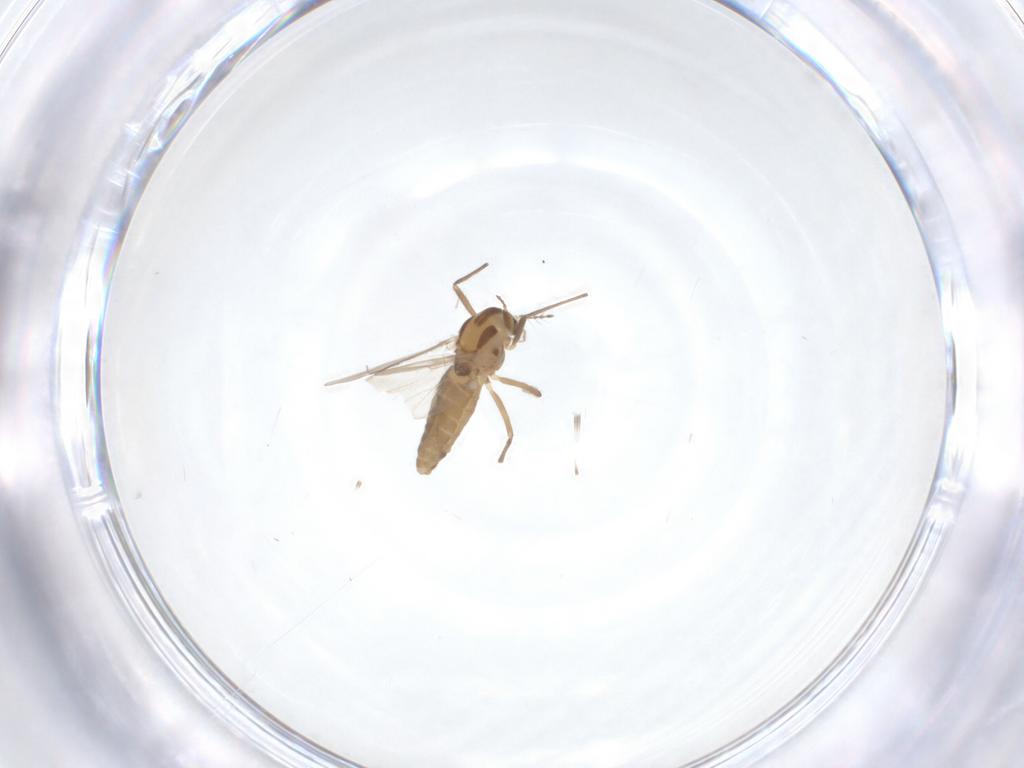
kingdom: Animalia
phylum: Arthropoda
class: Insecta
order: Diptera
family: Chironomidae
